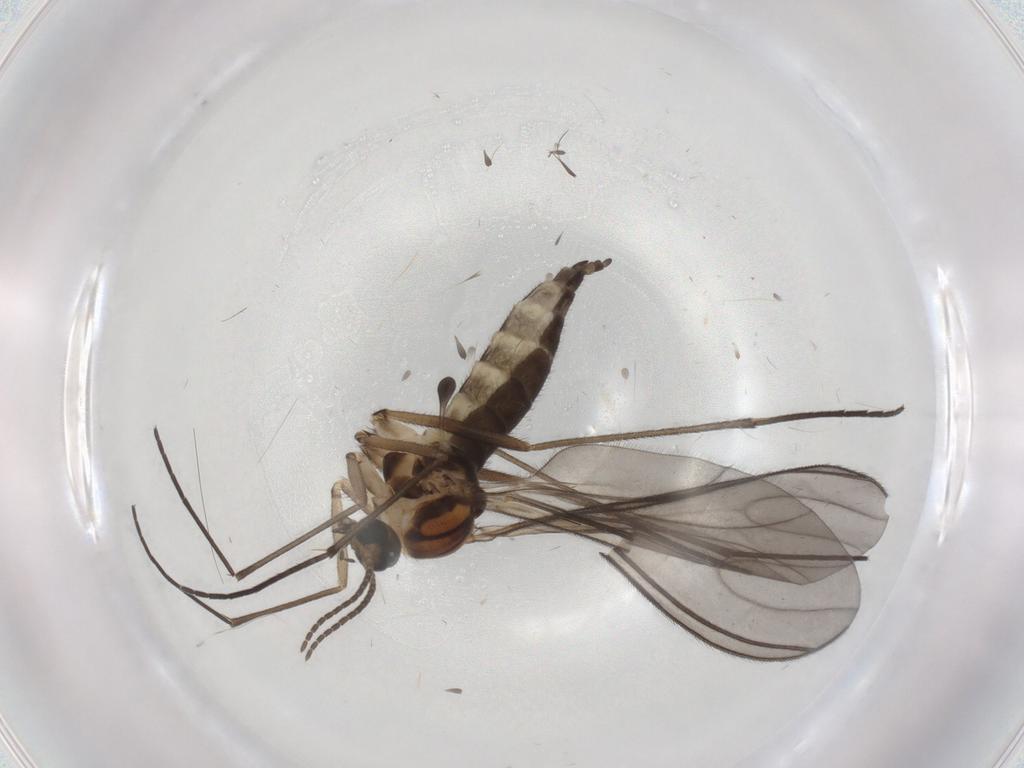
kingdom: Animalia
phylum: Arthropoda
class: Insecta
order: Diptera
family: Sciaridae
